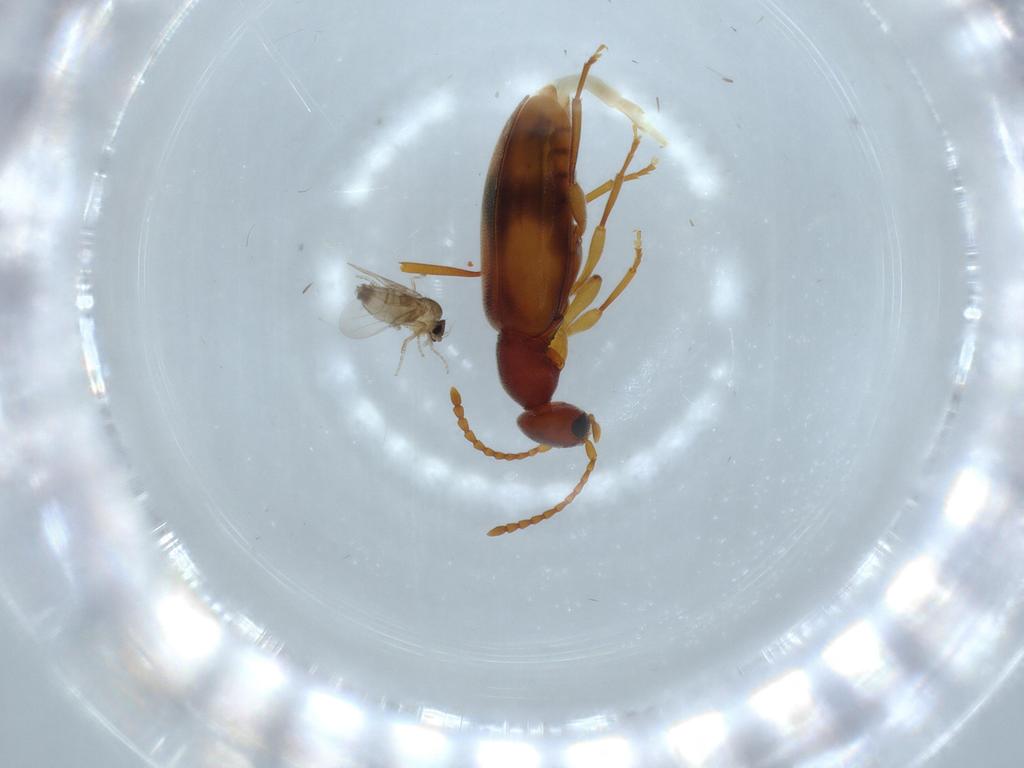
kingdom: Animalia
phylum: Arthropoda
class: Insecta
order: Coleoptera
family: Anthicidae
